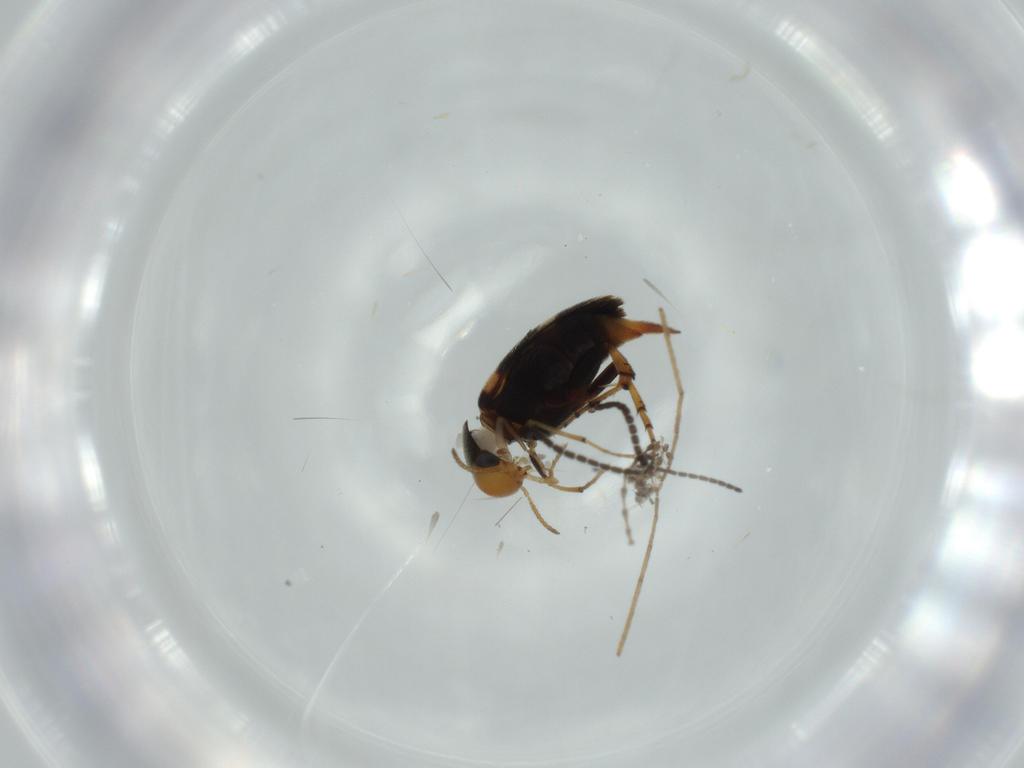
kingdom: Animalia
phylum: Arthropoda
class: Insecta
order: Coleoptera
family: Mordellidae
